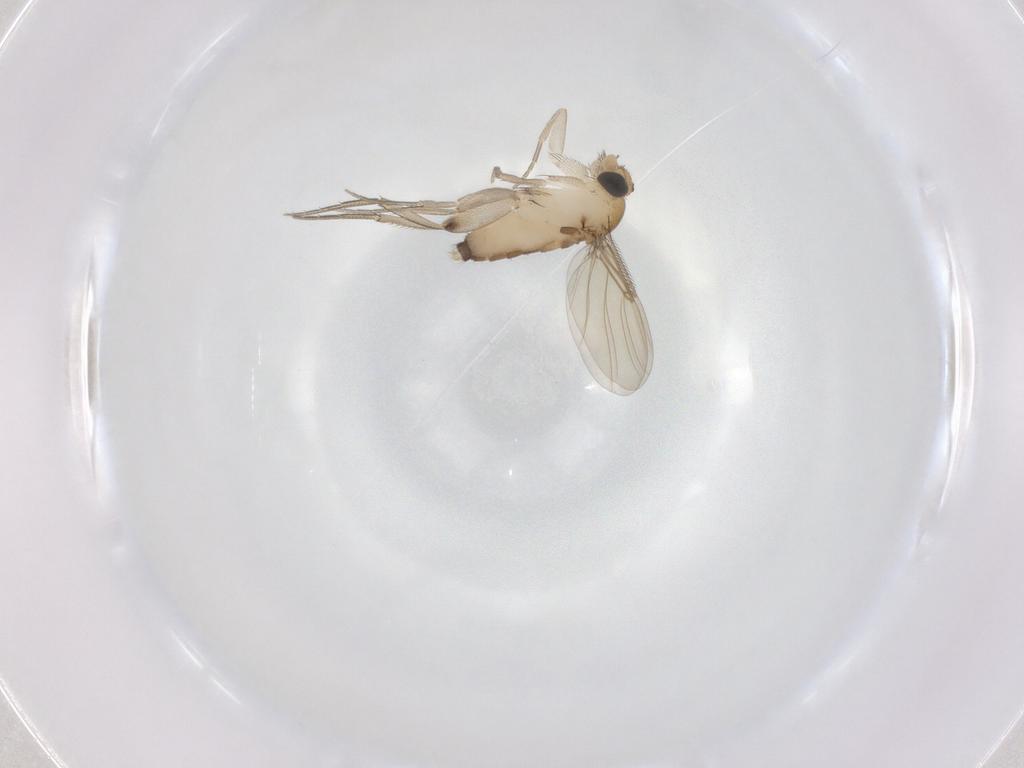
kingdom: Animalia
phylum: Arthropoda
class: Insecta
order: Diptera
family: Phoridae
